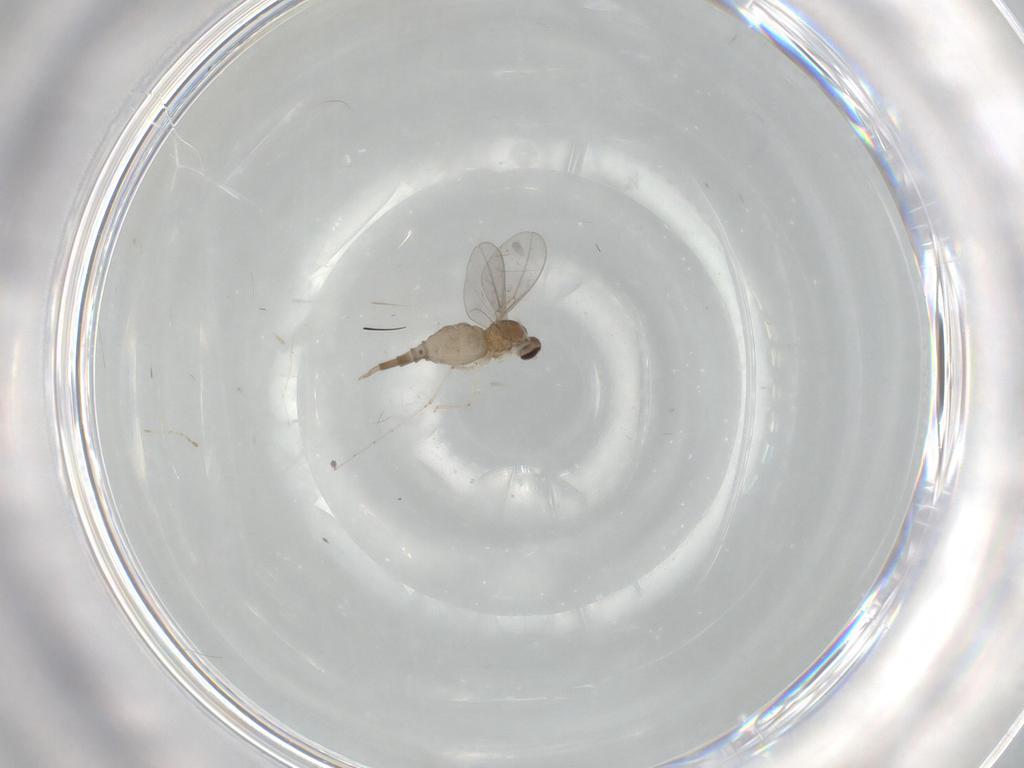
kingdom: Animalia
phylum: Arthropoda
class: Insecta
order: Diptera
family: Cecidomyiidae
